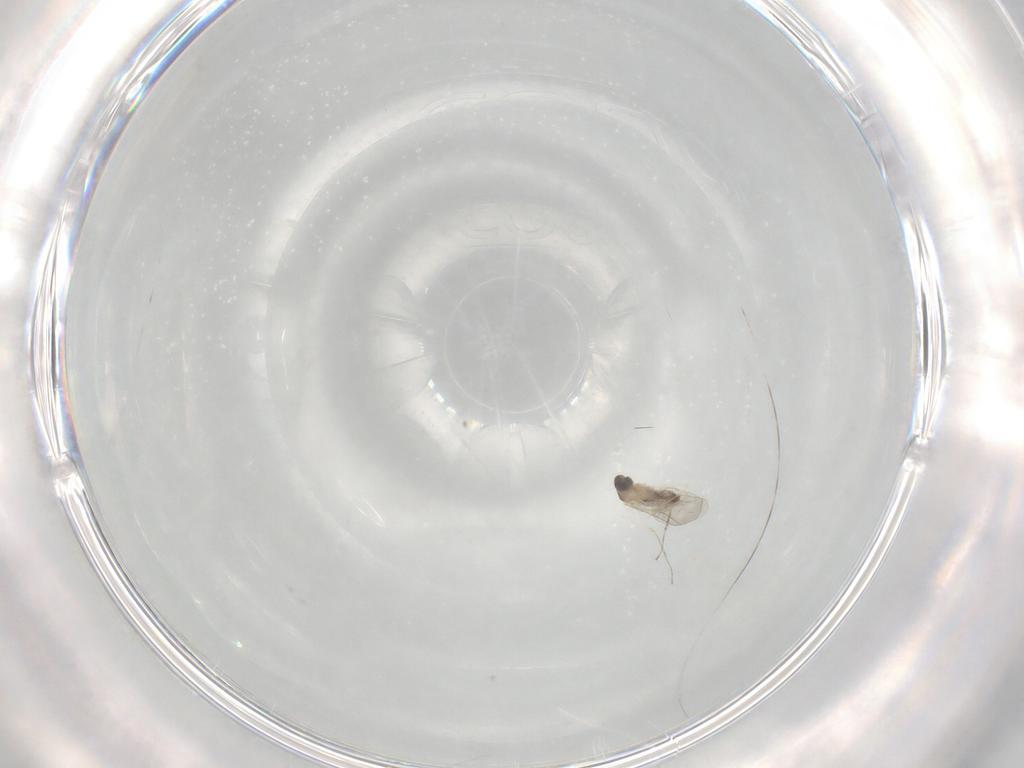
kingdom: Animalia
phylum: Arthropoda
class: Insecta
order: Diptera
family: Cecidomyiidae
